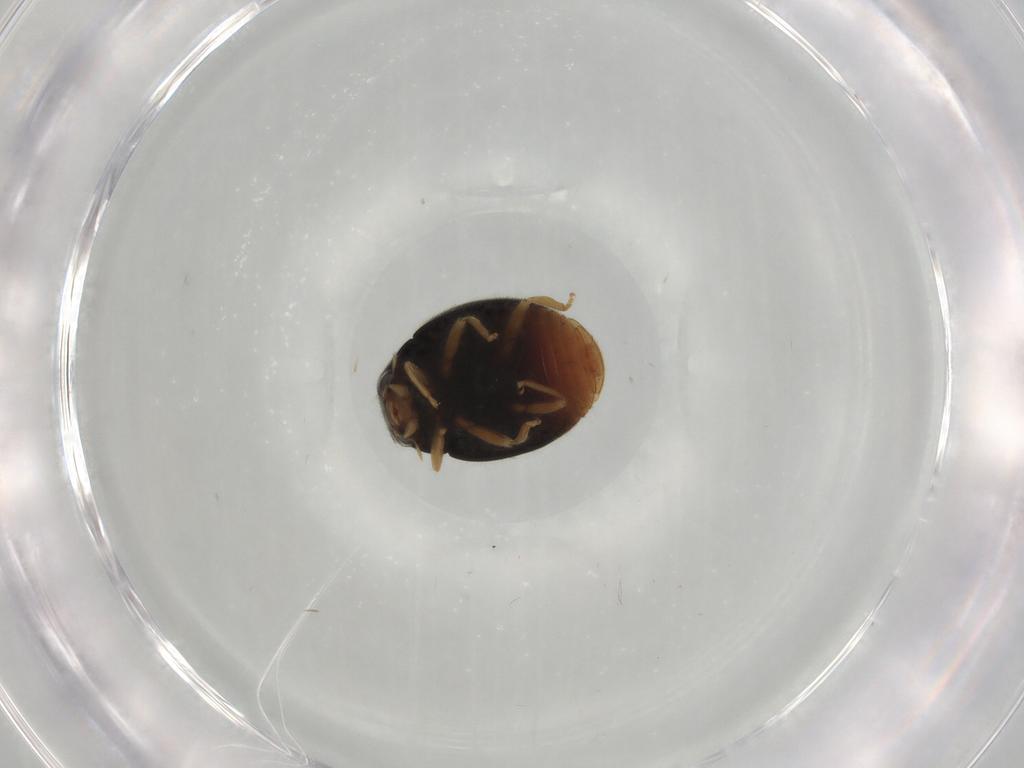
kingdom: Animalia
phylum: Arthropoda
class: Insecta
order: Coleoptera
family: Coccinellidae
